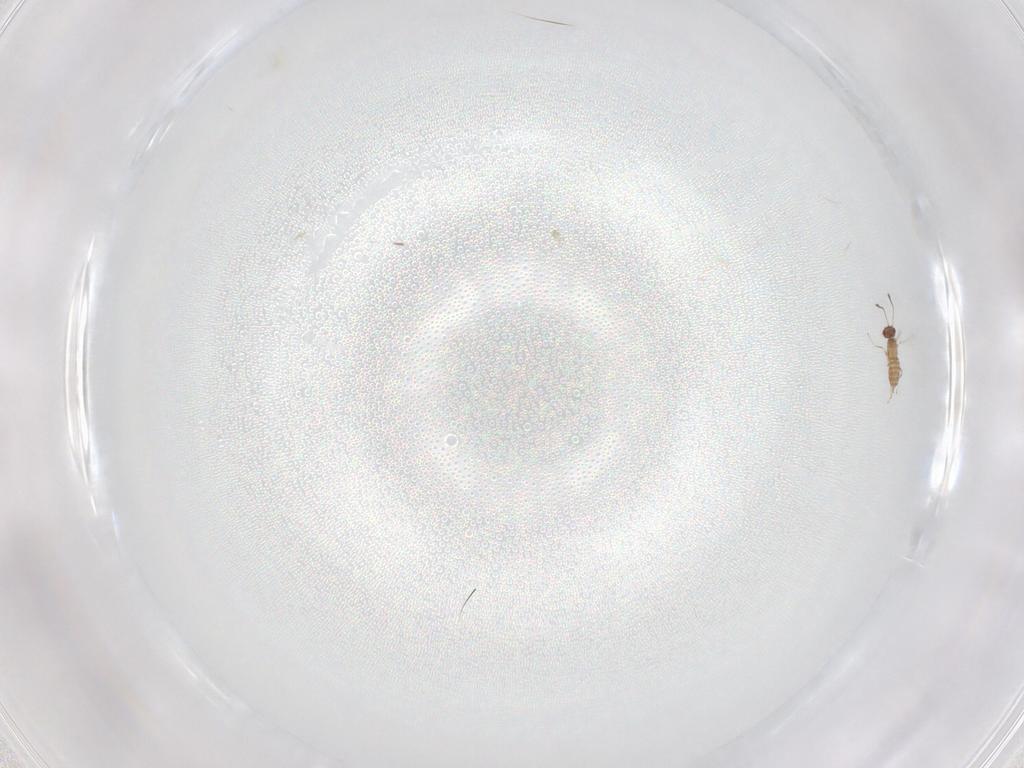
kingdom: Animalia
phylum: Arthropoda
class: Insecta
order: Hymenoptera
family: Mymaridae
